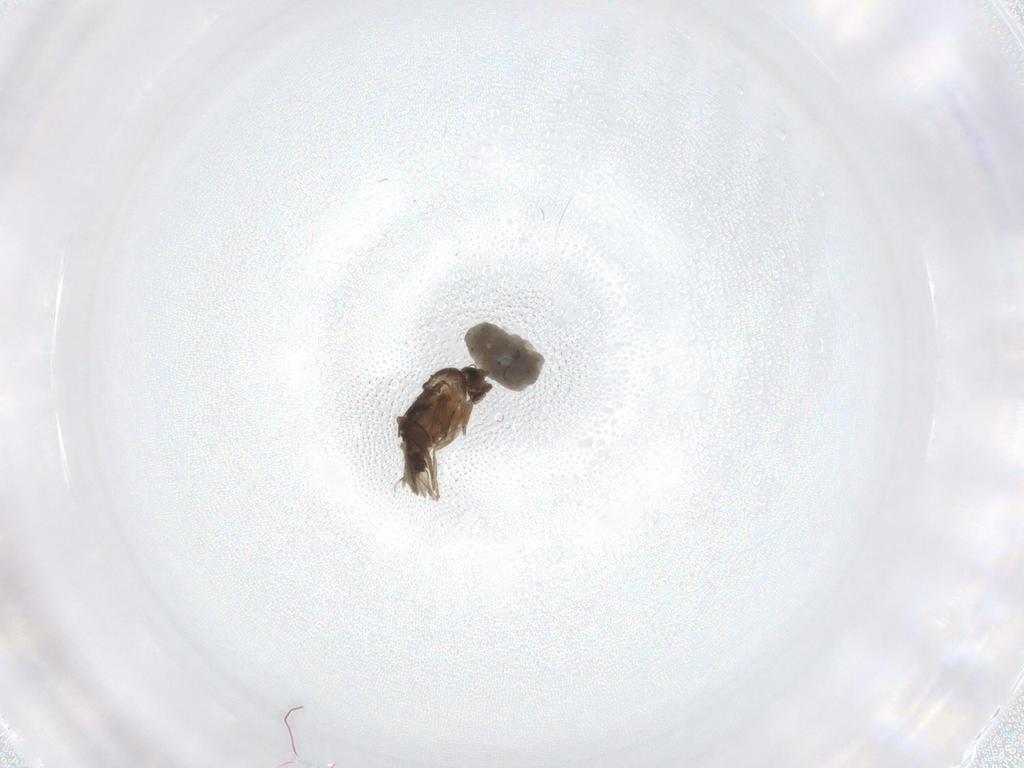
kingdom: Animalia
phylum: Arthropoda
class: Insecta
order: Diptera
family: Chironomidae
